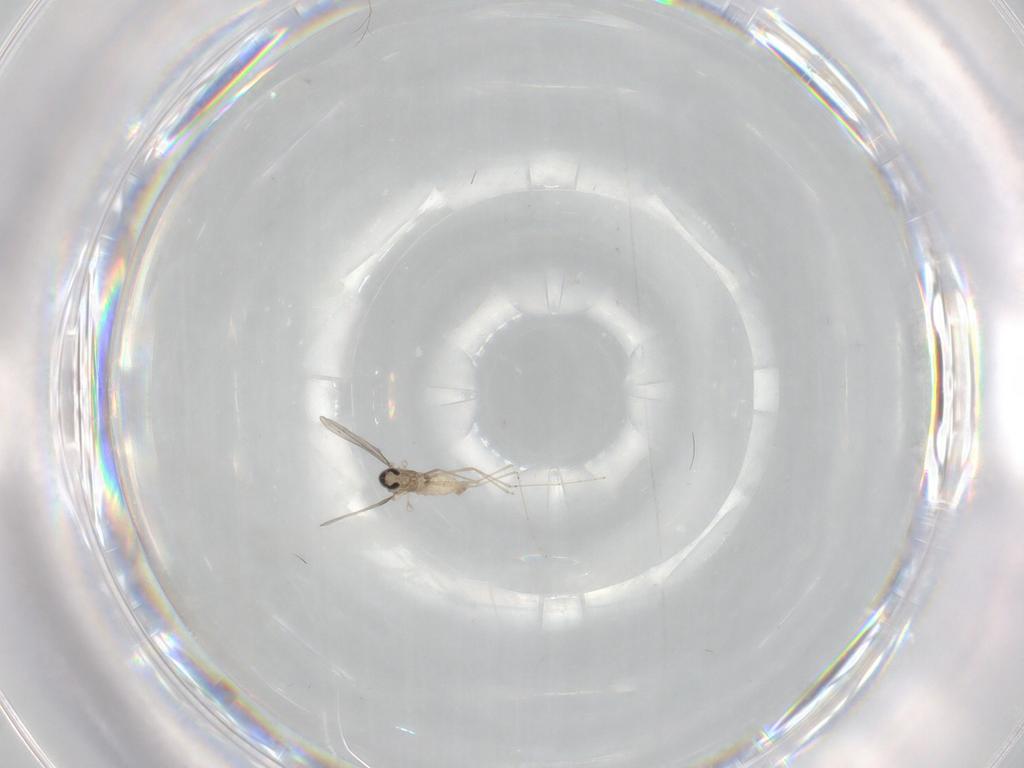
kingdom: Animalia
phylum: Arthropoda
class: Insecta
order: Diptera
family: Cecidomyiidae
